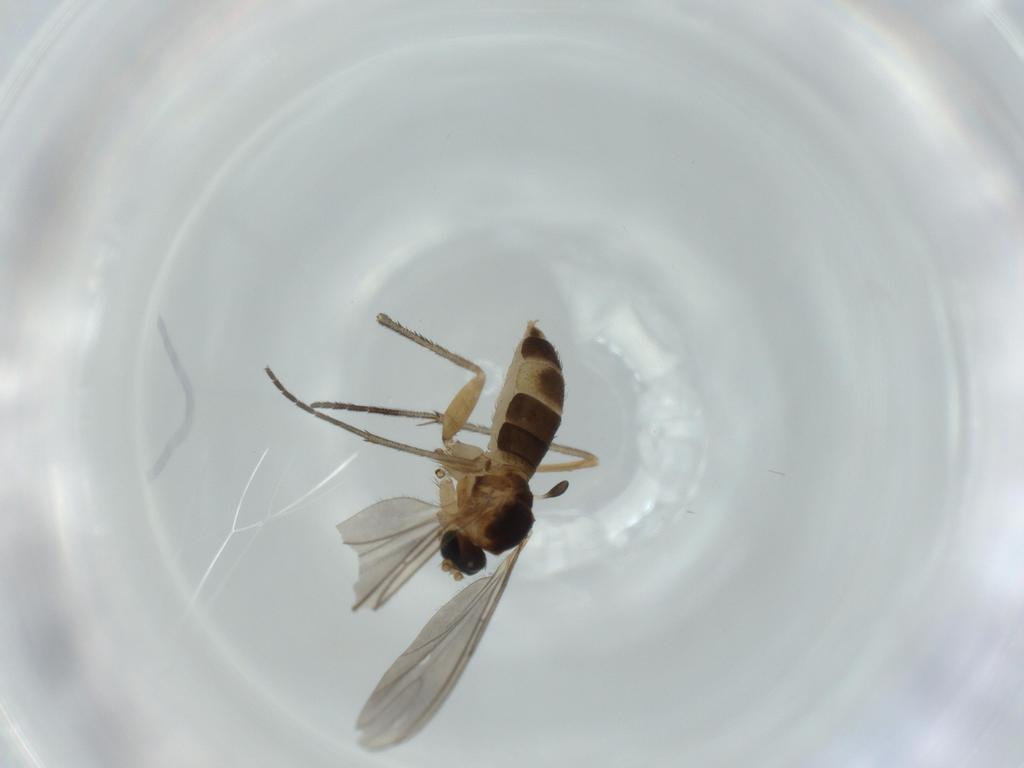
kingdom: Animalia
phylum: Arthropoda
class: Insecta
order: Diptera
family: Sciaridae
